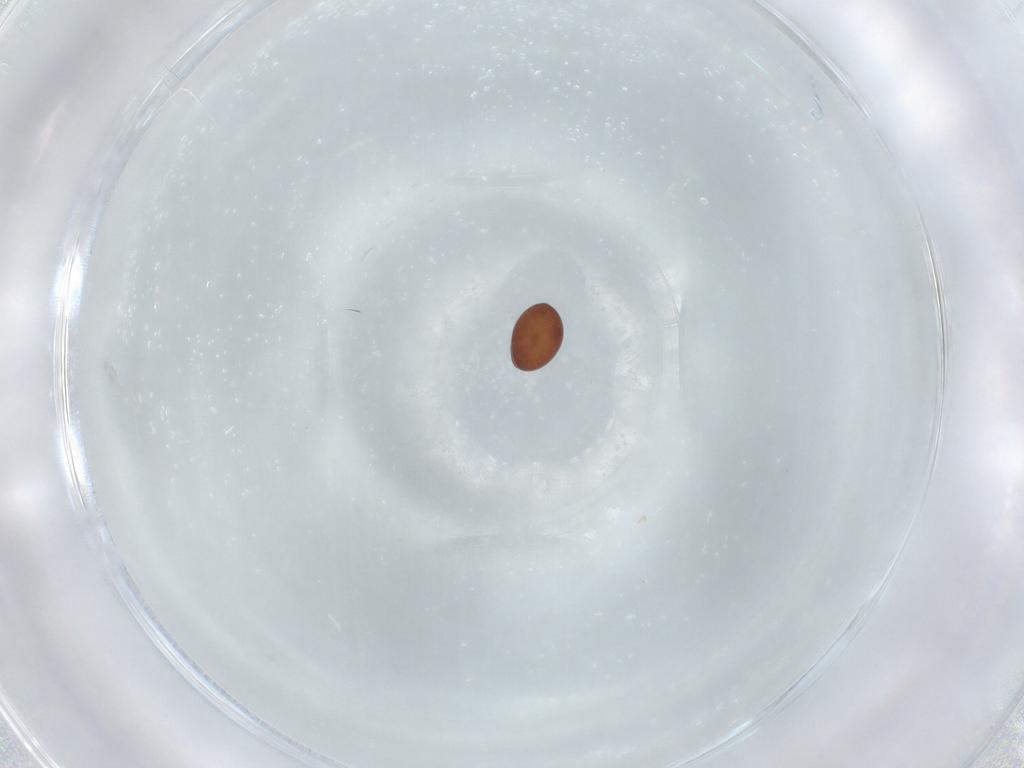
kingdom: Animalia
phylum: Arthropoda
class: Arachnida
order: Sarcoptiformes
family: Phthiracaridae
